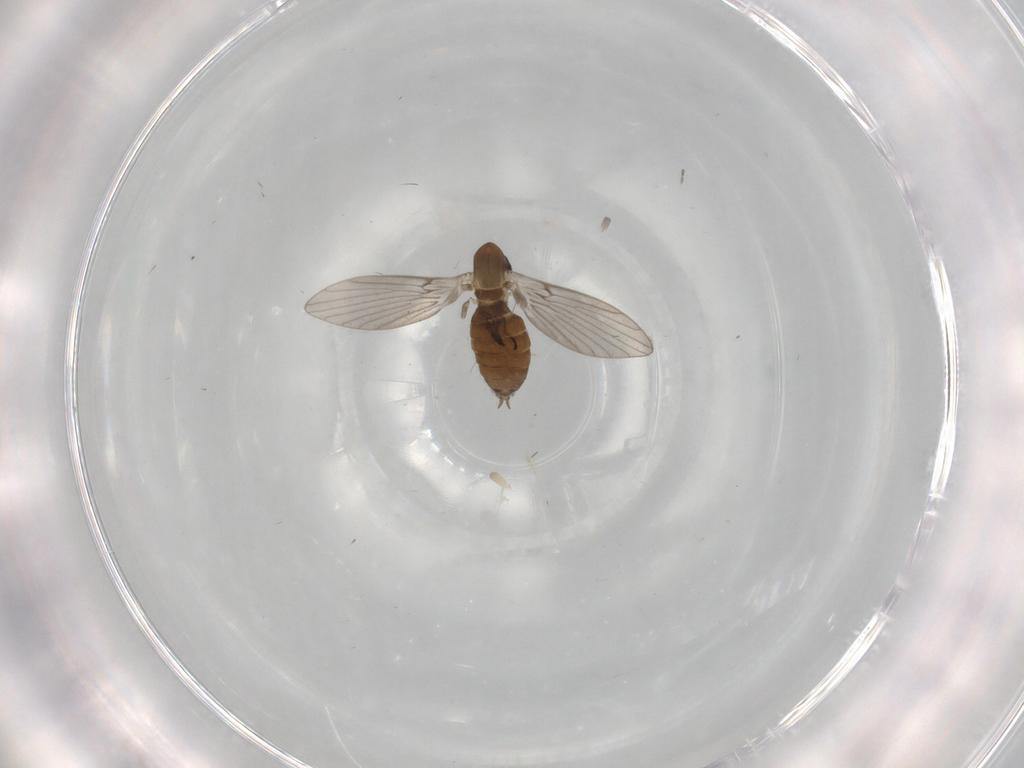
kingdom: Animalia
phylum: Arthropoda
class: Insecta
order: Diptera
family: Psychodidae
